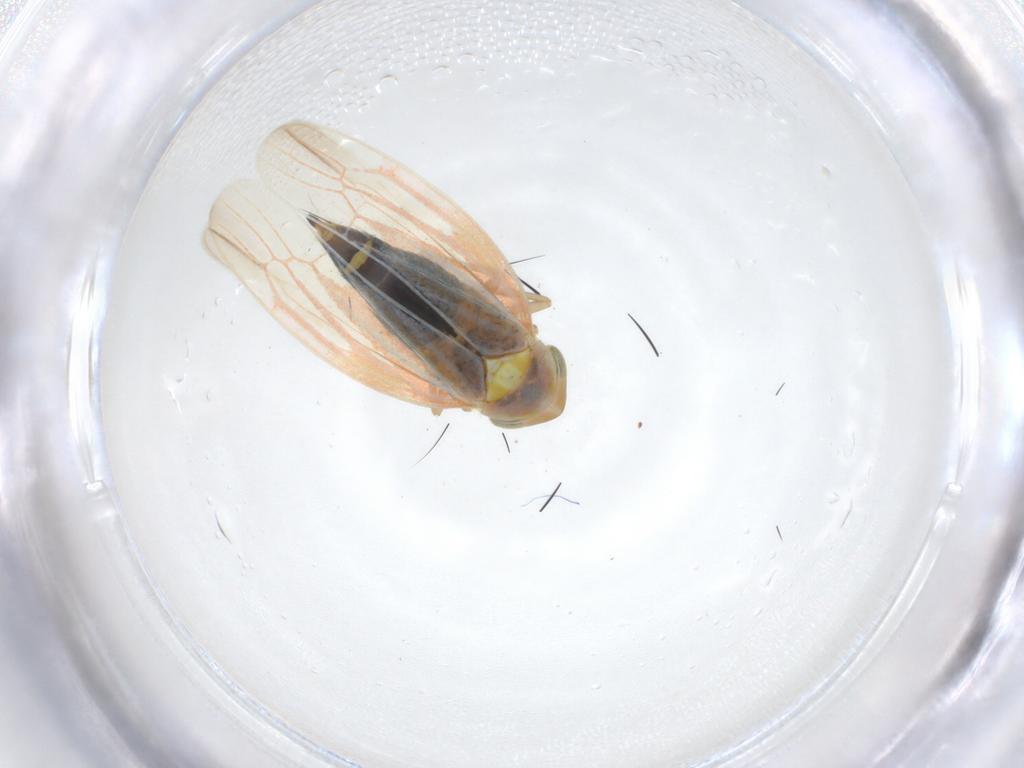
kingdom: Animalia
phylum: Arthropoda
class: Insecta
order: Hemiptera
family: Cicadellidae
